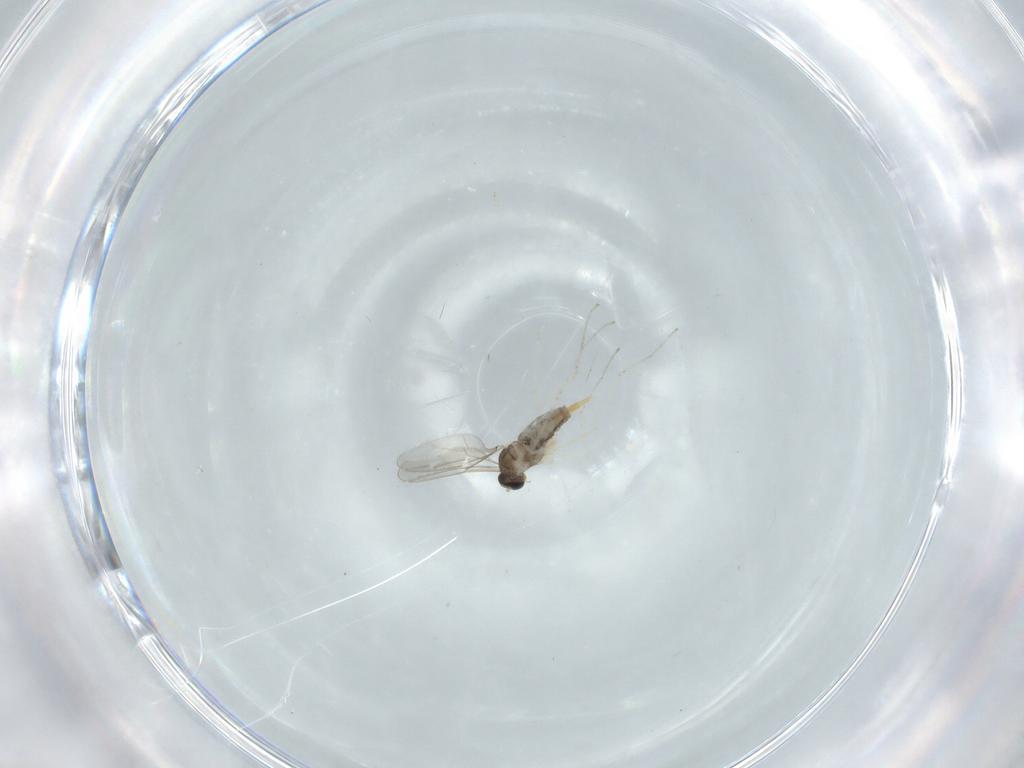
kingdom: Animalia
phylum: Arthropoda
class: Insecta
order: Diptera
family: Cecidomyiidae
